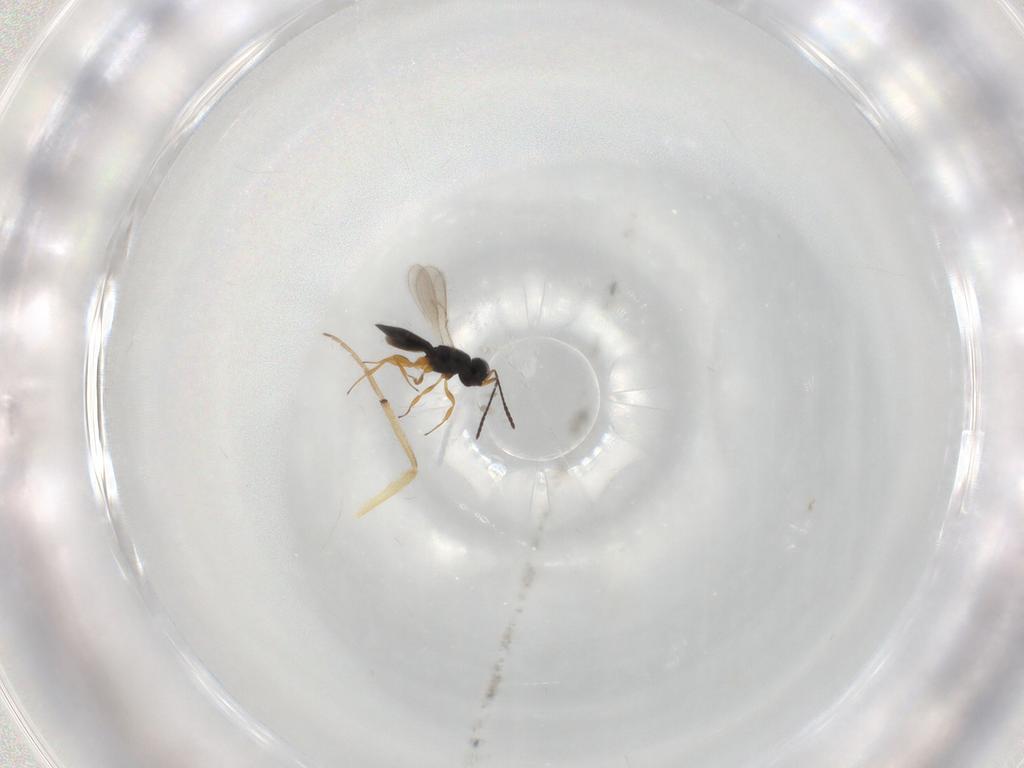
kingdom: Animalia
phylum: Arthropoda
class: Insecta
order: Hymenoptera
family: Scelionidae
